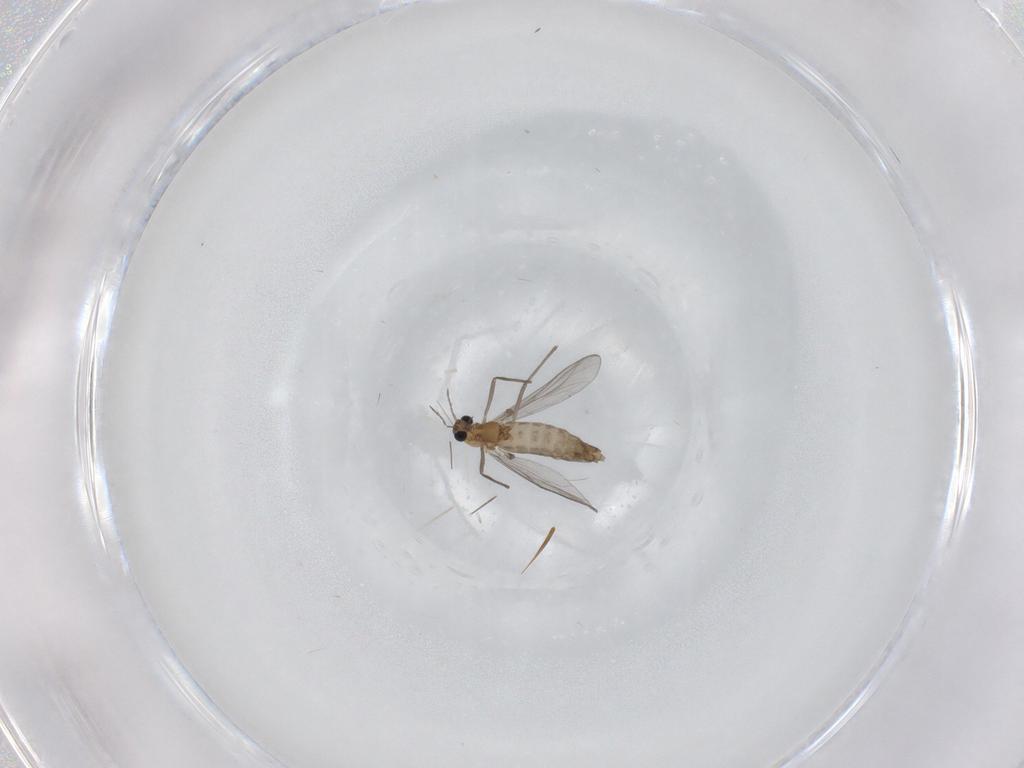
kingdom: Animalia
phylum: Arthropoda
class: Insecta
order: Diptera
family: Chironomidae
